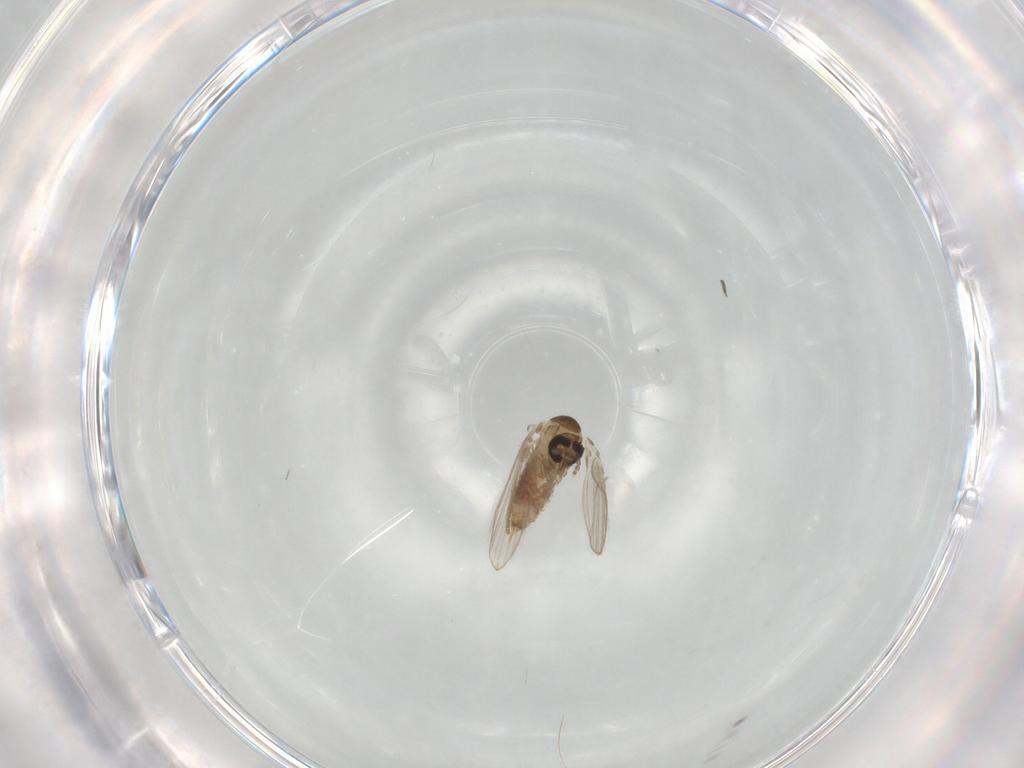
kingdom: Animalia
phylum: Arthropoda
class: Insecta
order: Diptera
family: Psychodidae
